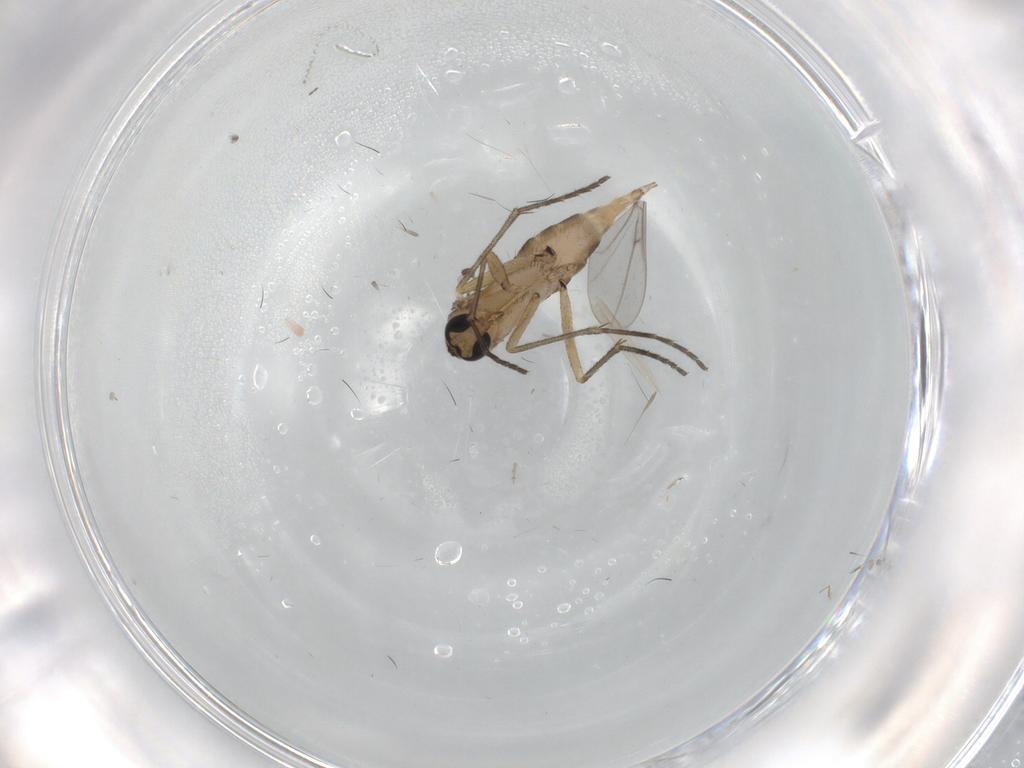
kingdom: Animalia
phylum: Arthropoda
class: Insecta
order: Diptera
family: Sciaridae
